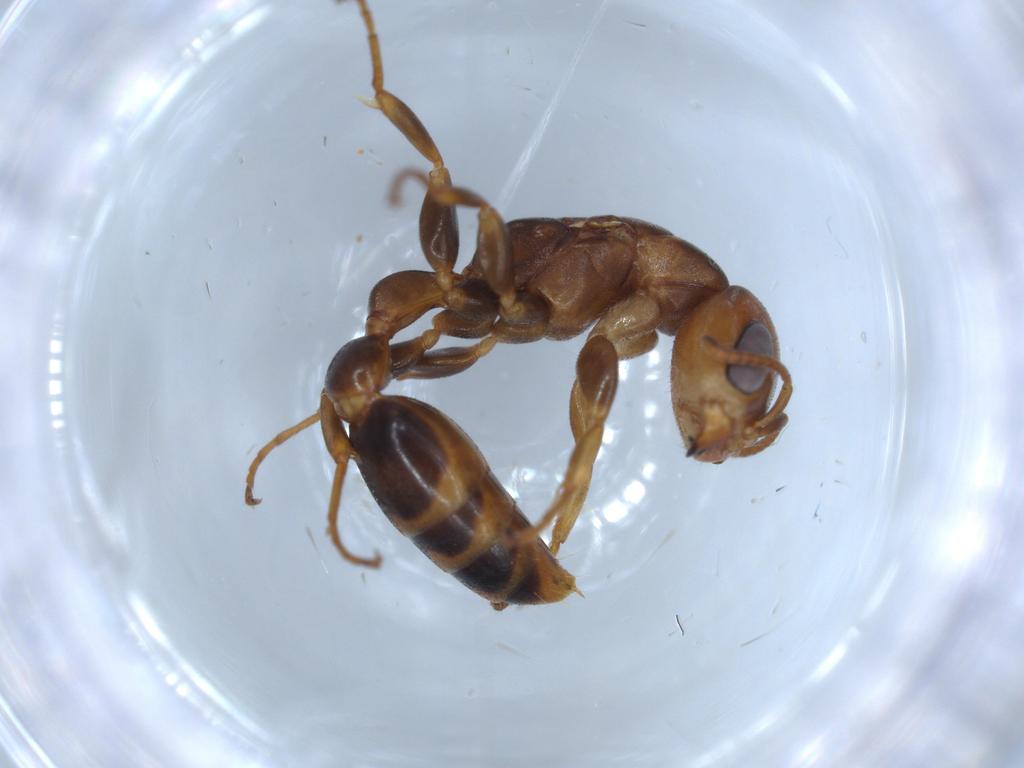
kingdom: Animalia
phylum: Arthropoda
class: Insecta
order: Hymenoptera
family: Formicidae
